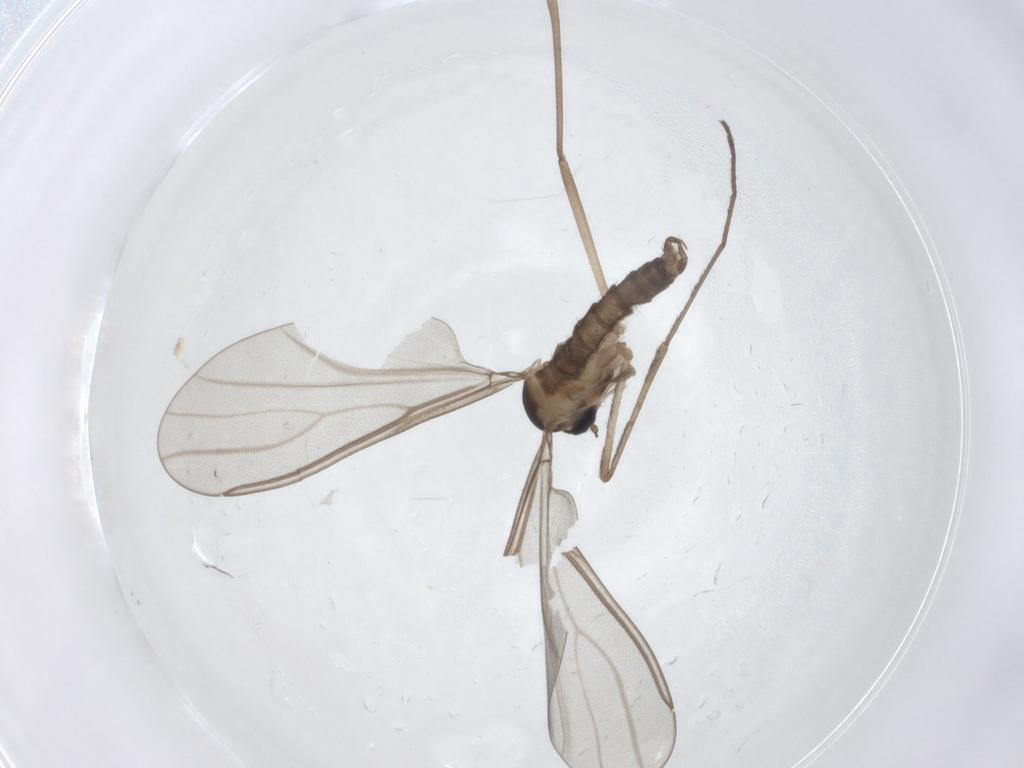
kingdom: Animalia
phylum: Arthropoda
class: Insecta
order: Diptera
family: Cecidomyiidae
